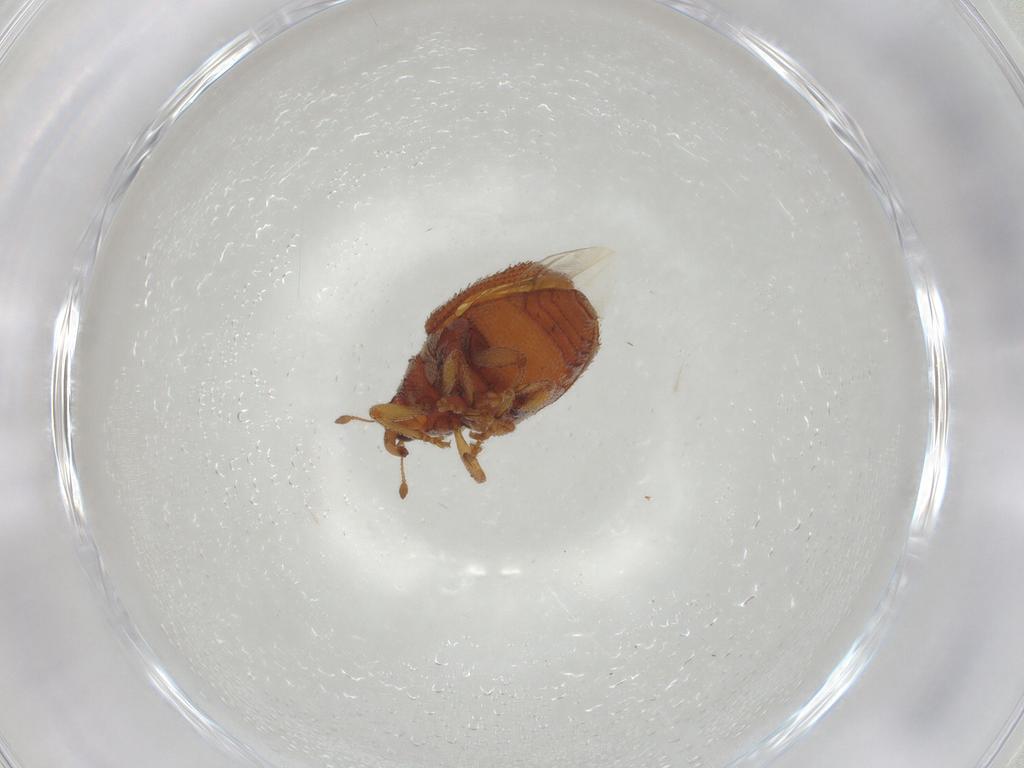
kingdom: Animalia
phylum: Arthropoda
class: Insecta
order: Coleoptera
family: Curculionidae
